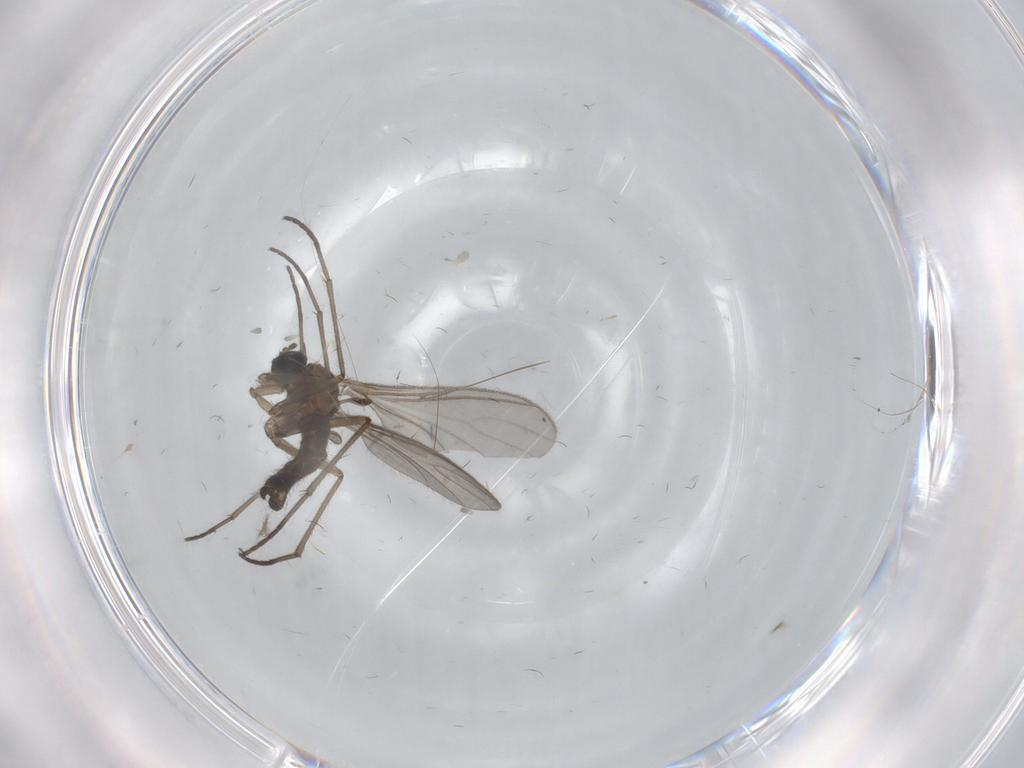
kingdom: Animalia
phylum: Arthropoda
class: Insecta
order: Diptera
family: Sciaridae
